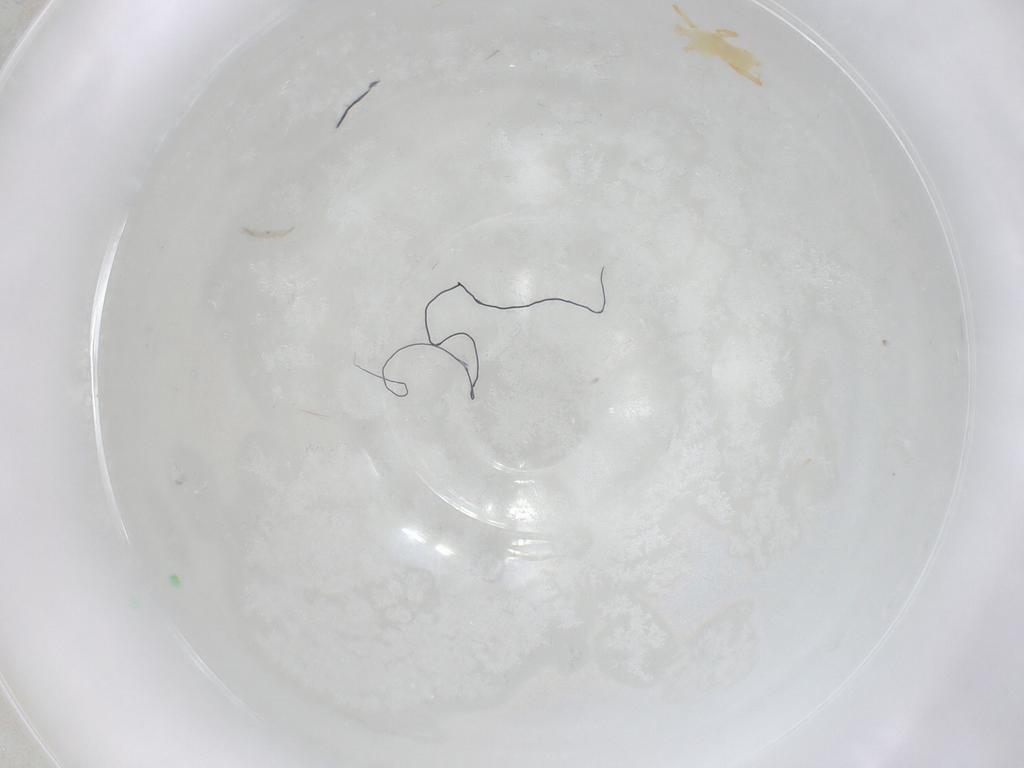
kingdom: Animalia
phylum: Arthropoda
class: Arachnida
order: Trombidiformes
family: Eupodidae
